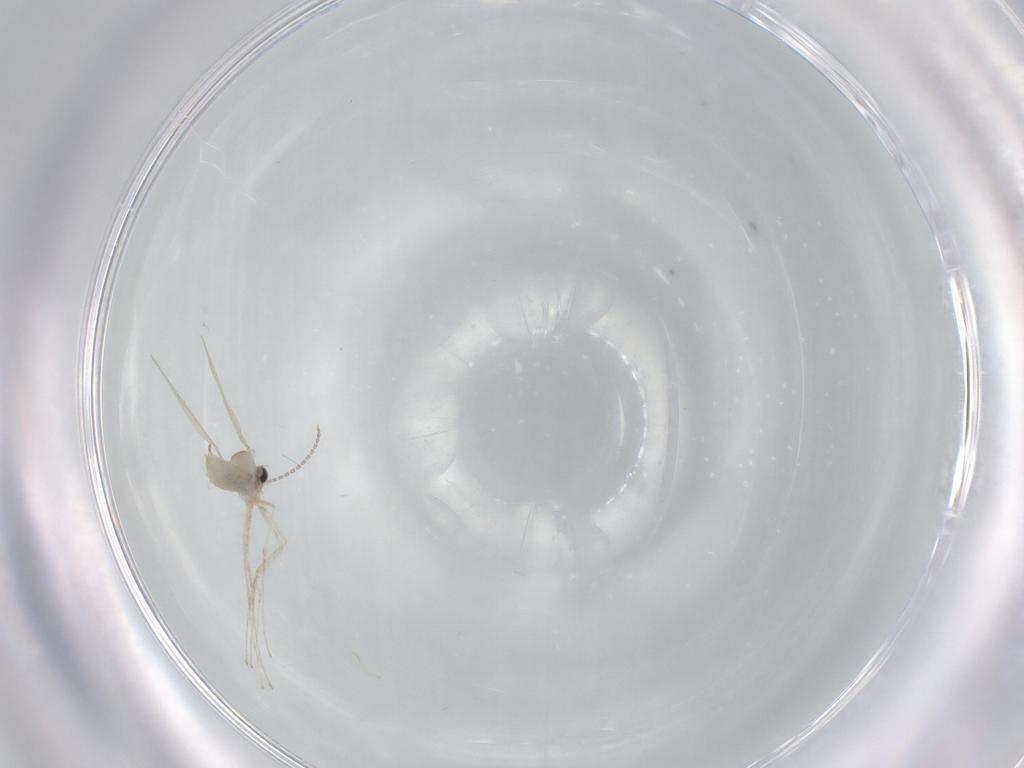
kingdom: Animalia
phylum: Arthropoda
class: Insecta
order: Diptera
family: Cecidomyiidae
